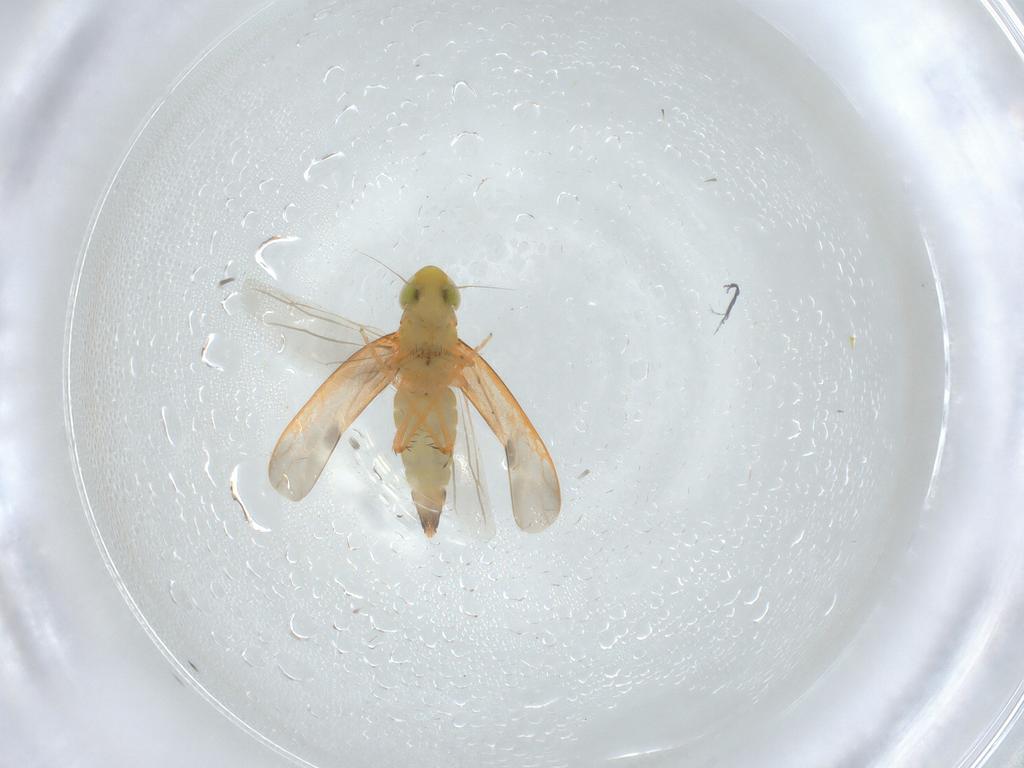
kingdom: Animalia
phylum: Arthropoda
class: Insecta
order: Hemiptera
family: Cicadellidae
